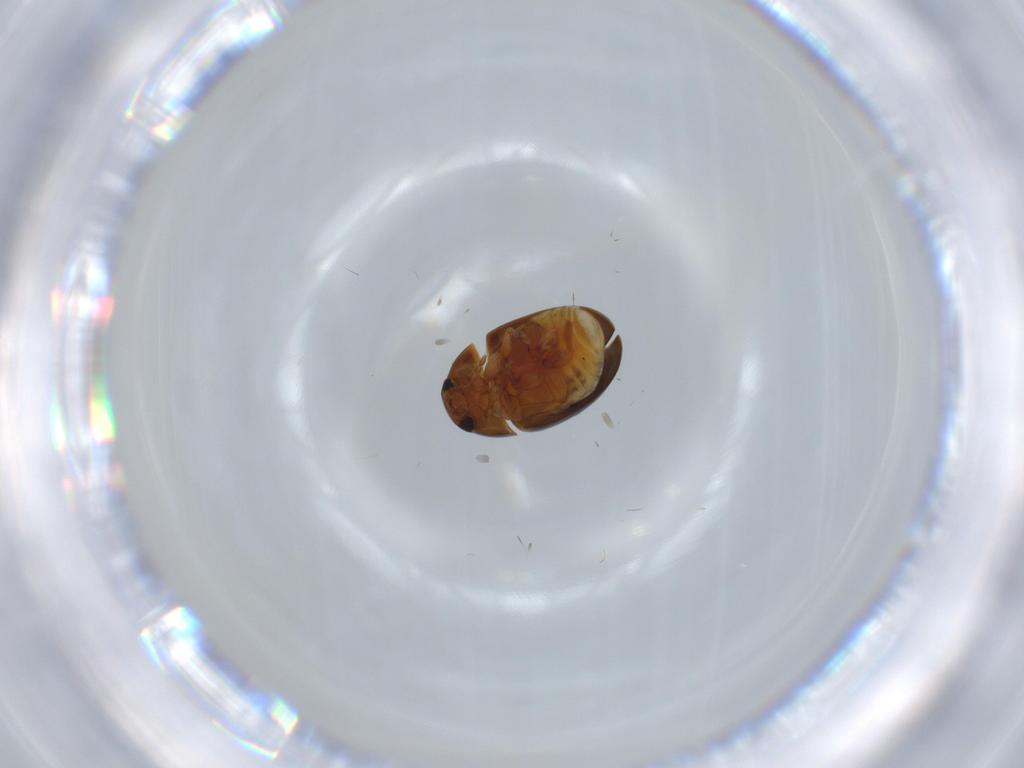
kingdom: Animalia
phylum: Arthropoda
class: Insecta
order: Coleoptera
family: Phalacridae
